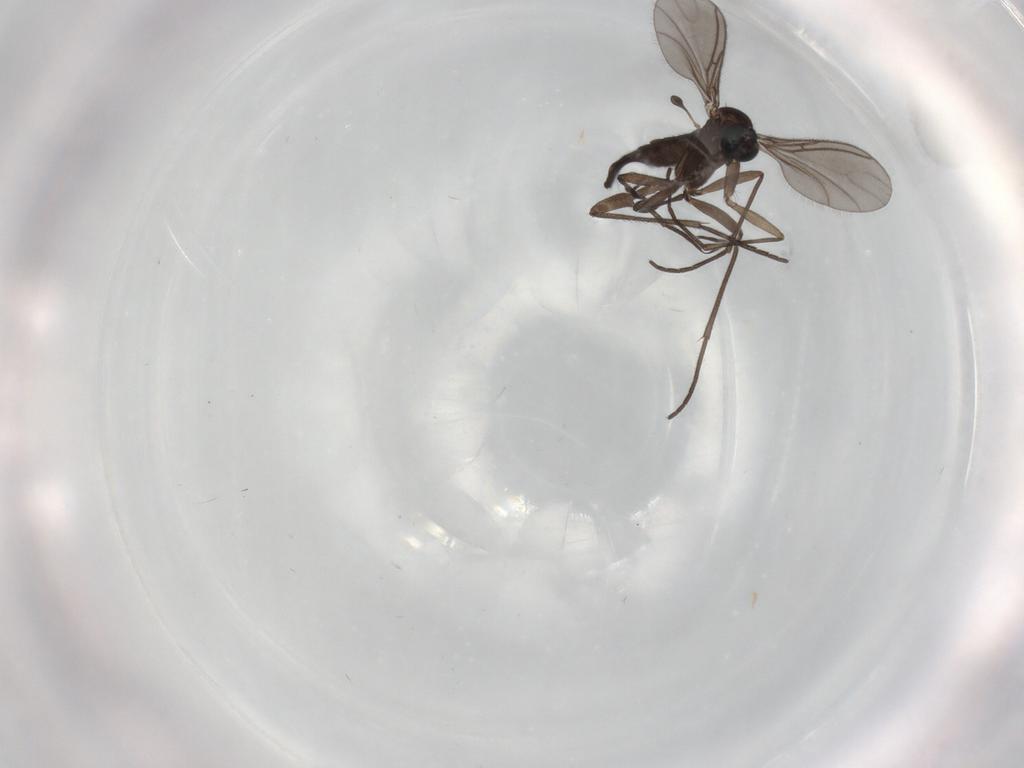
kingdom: Animalia
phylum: Arthropoda
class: Insecta
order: Diptera
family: Sciaridae
